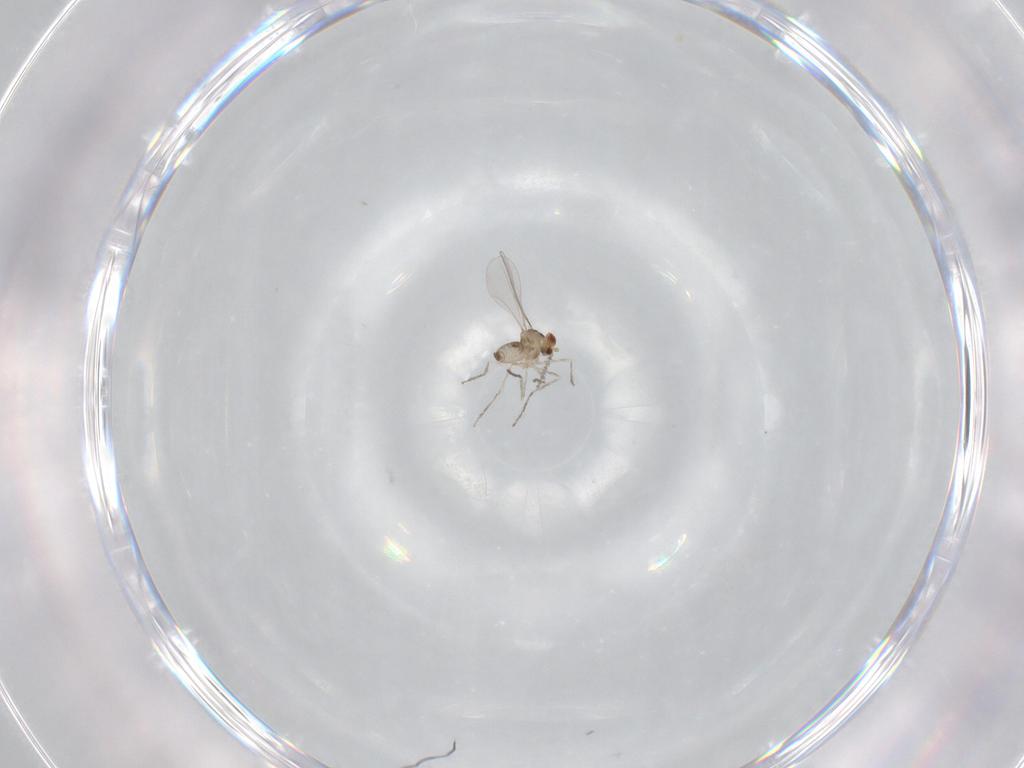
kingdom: Animalia
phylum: Arthropoda
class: Insecta
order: Diptera
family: Cecidomyiidae
